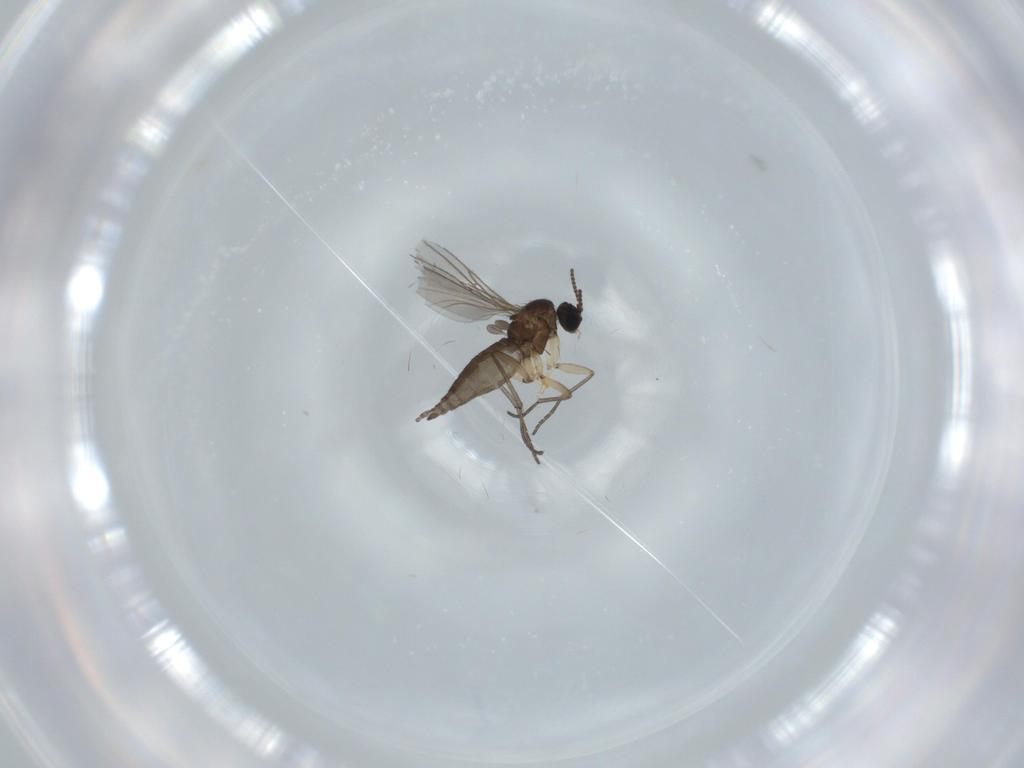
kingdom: Animalia
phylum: Arthropoda
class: Insecta
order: Diptera
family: Sciaridae
